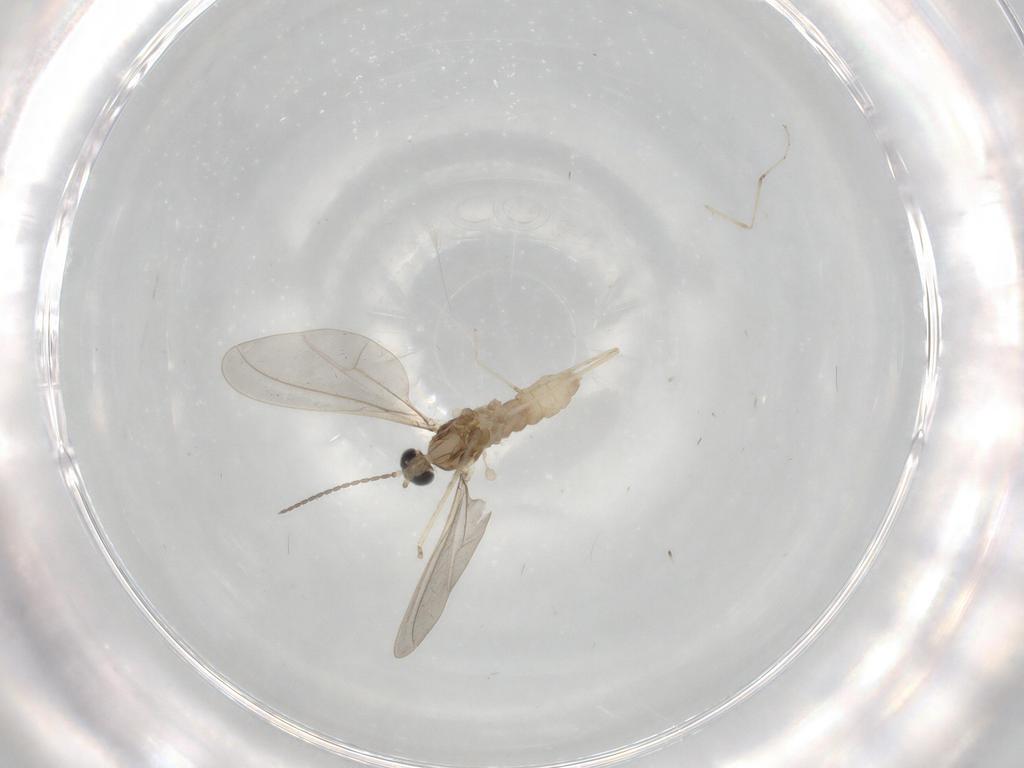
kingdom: Animalia
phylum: Arthropoda
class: Insecta
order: Diptera
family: Cecidomyiidae
